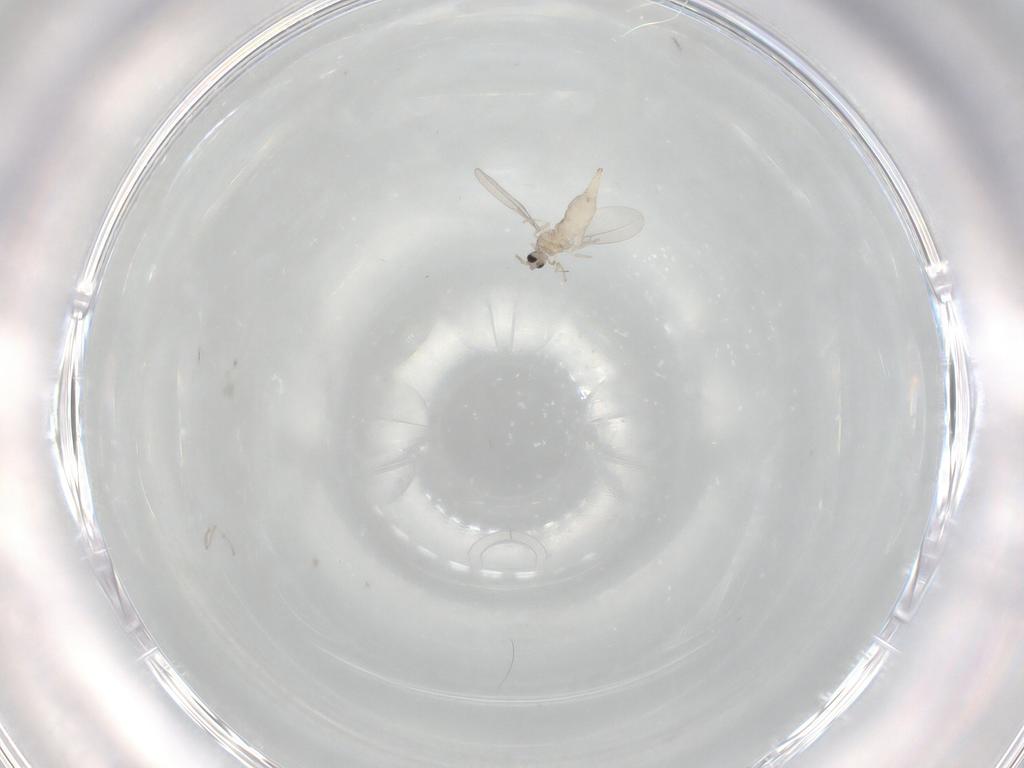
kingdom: Animalia
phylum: Arthropoda
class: Insecta
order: Diptera
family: Cecidomyiidae
